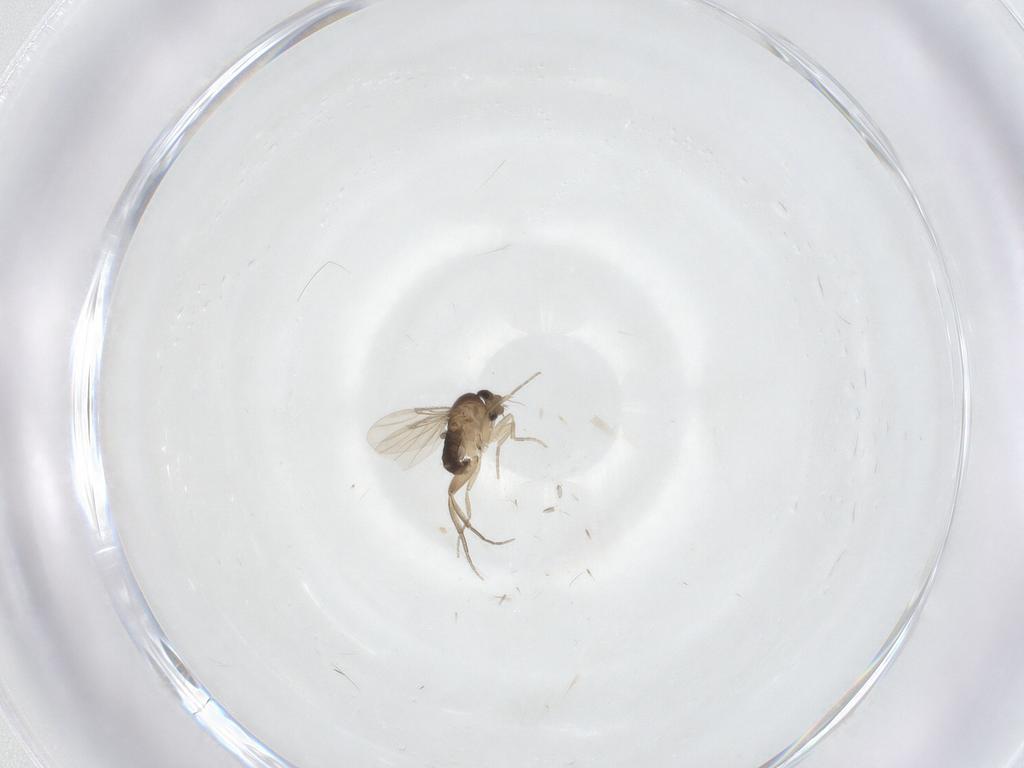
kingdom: Animalia
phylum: Arthropoda
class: Insecta
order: Diptera
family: Phoridae
